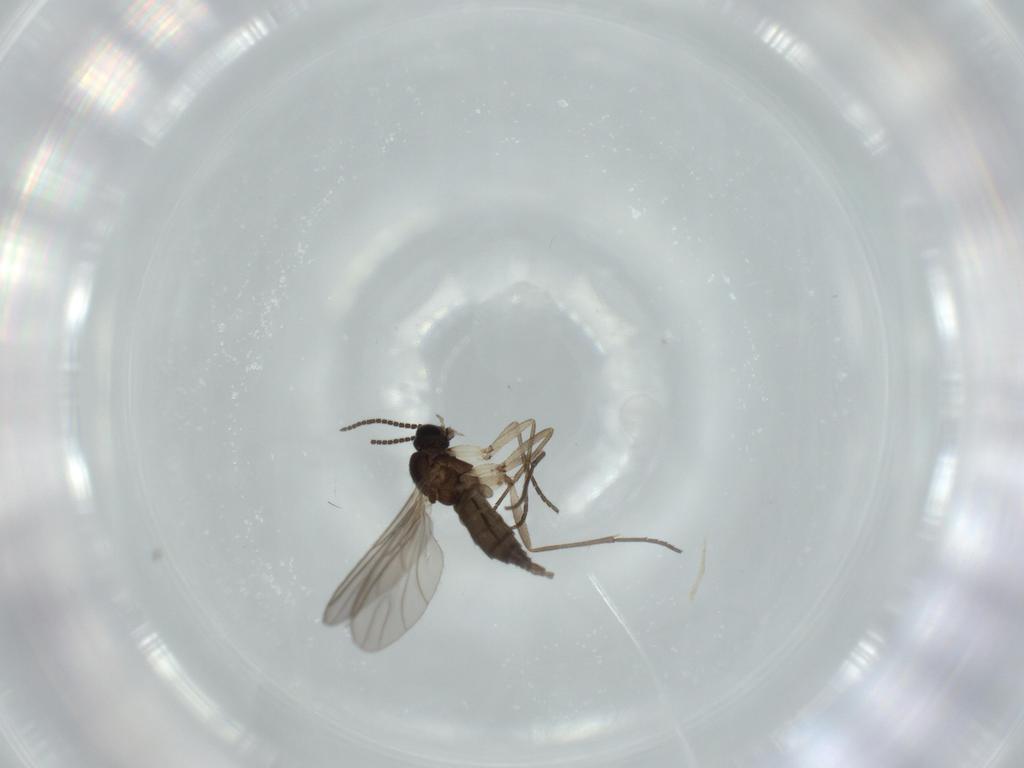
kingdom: Animalia
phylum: Arthropoda
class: Insecta
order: Diptera
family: Sciaridae
